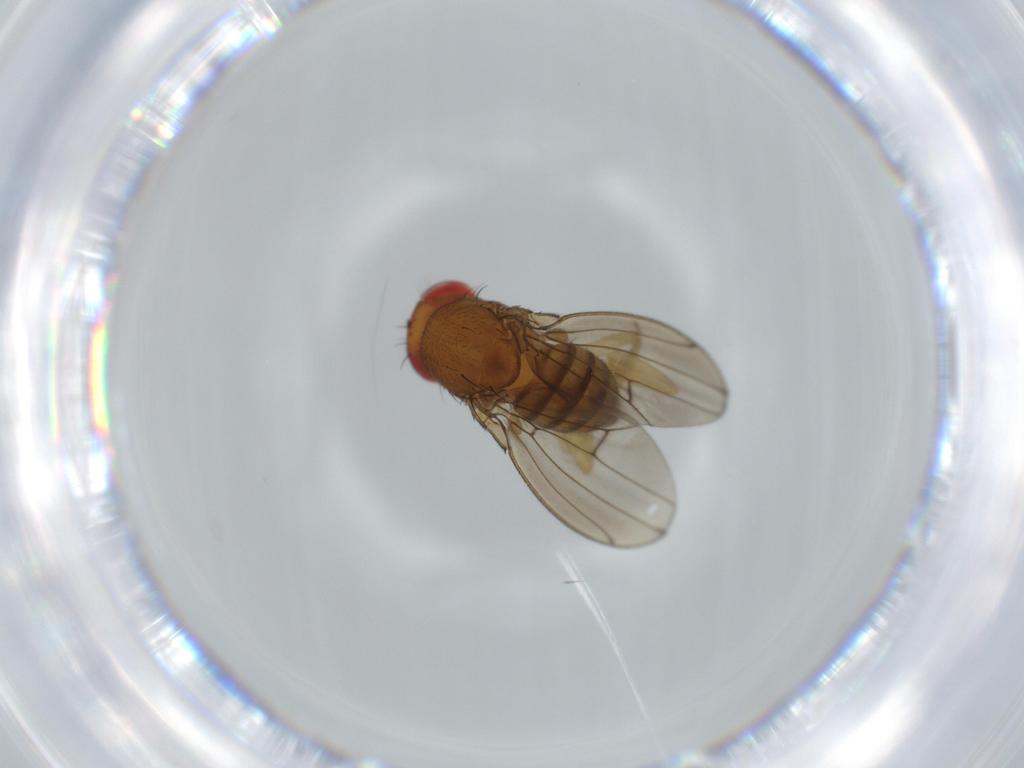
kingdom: Animalia
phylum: Arthropoda
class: Insecta
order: Diptera
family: Drosophilidae
